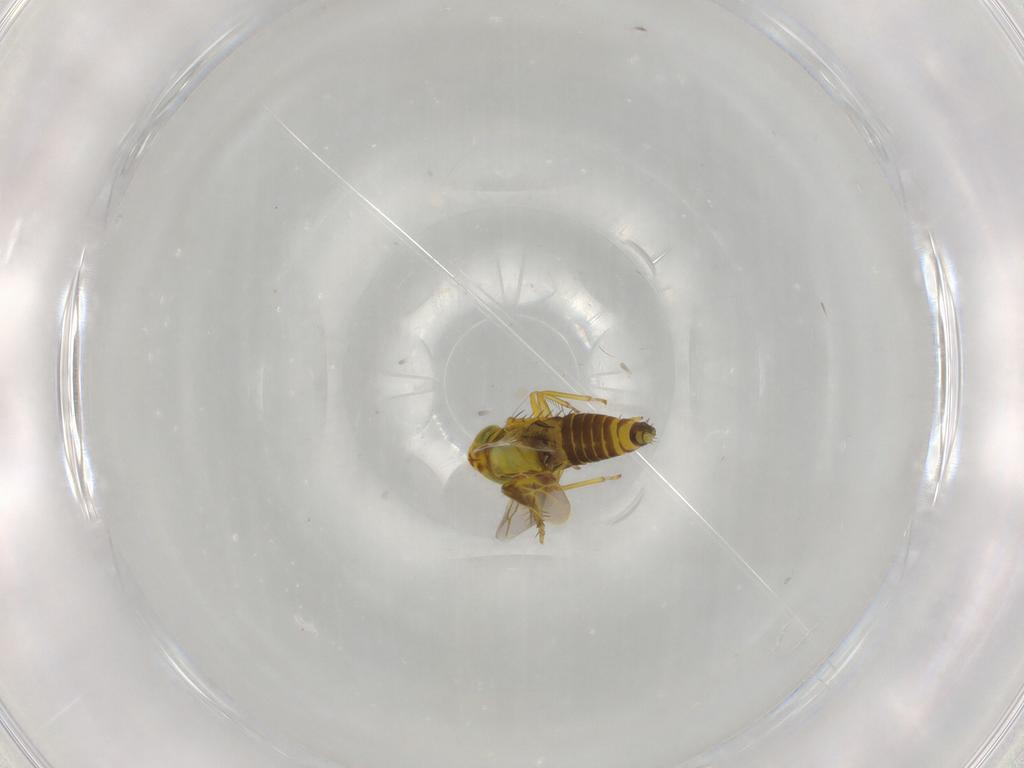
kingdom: Animalia
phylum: Arthropoda
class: Insecta
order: Hemiptera
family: Cicadellidae
